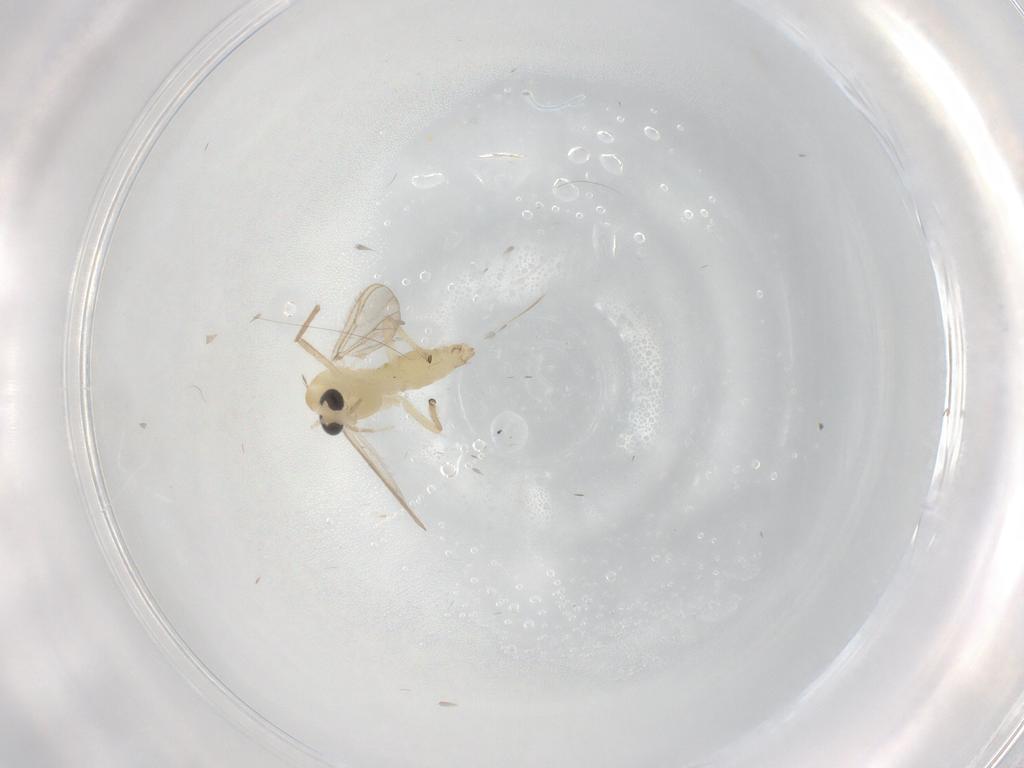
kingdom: Animalia
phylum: Arthropoda
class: Insecta
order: Diptera
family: Chironomidae
